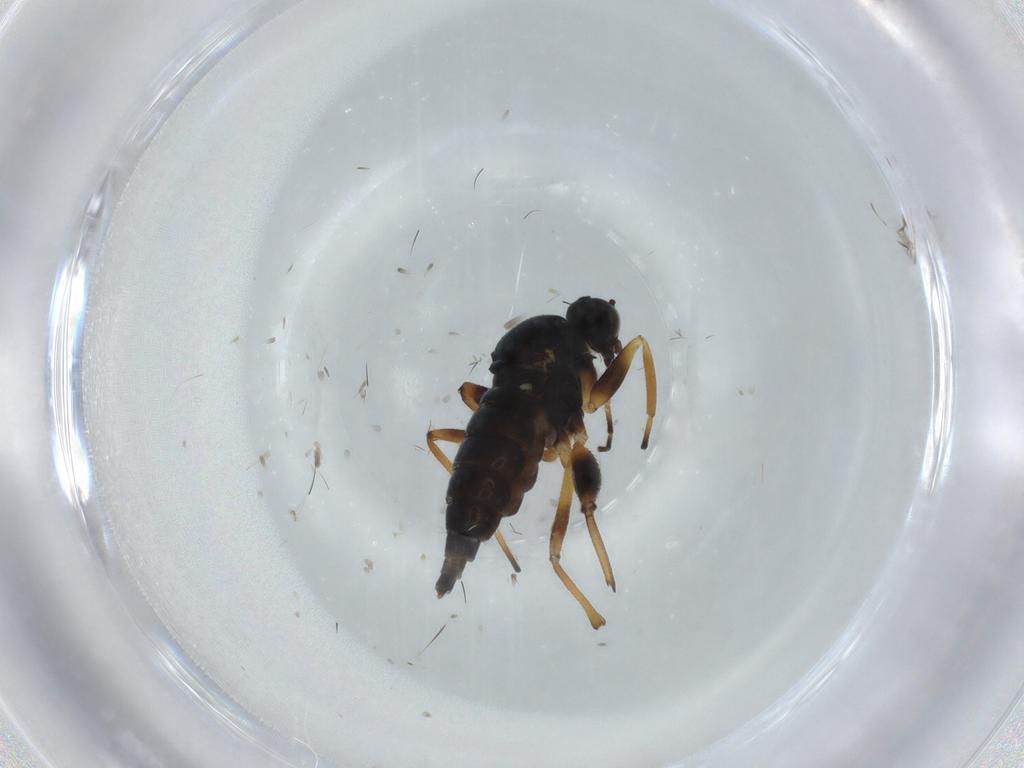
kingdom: Animalia
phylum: Arthropoda
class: Insecta
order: Diptera
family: Hybotidae
